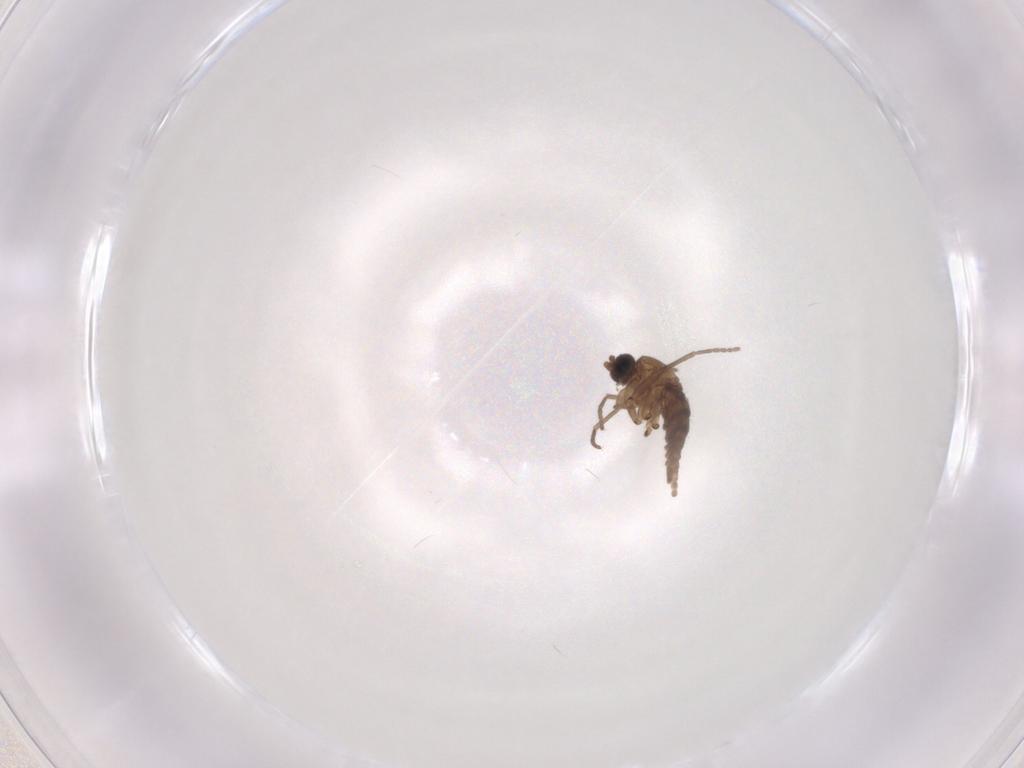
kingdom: Animalia
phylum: Arthropoda
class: Insecta
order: Diptera
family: Sciaridae
